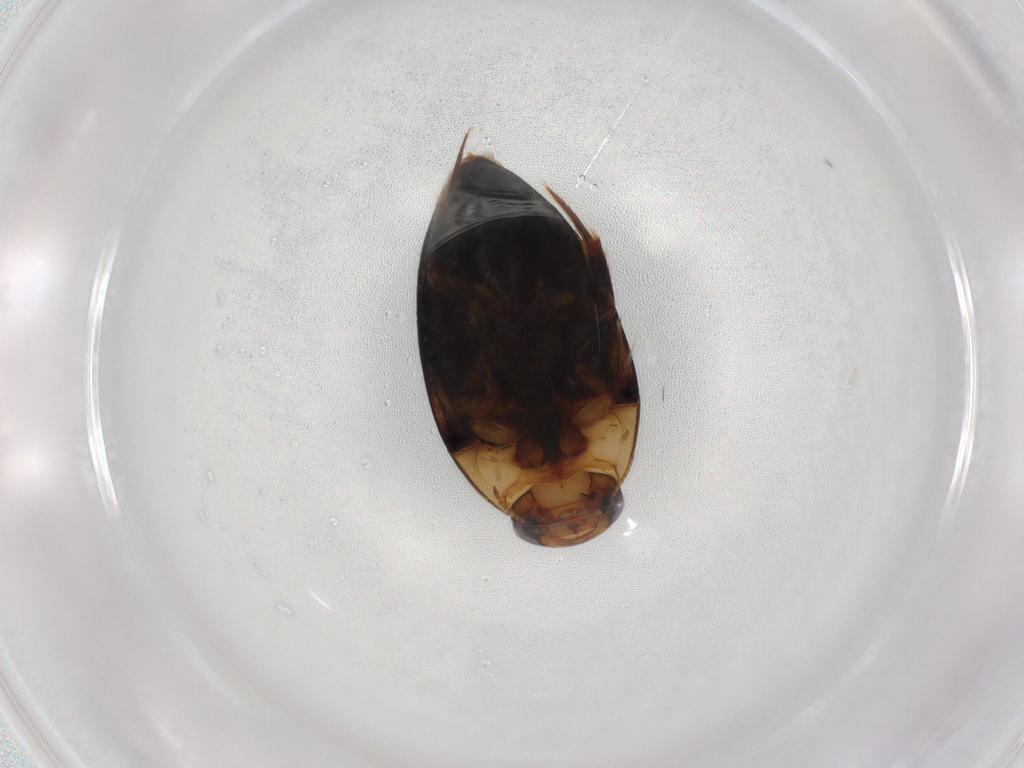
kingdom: Animalia
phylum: Arthropoda
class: Insecta
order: Coleoptera
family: Noteridae
